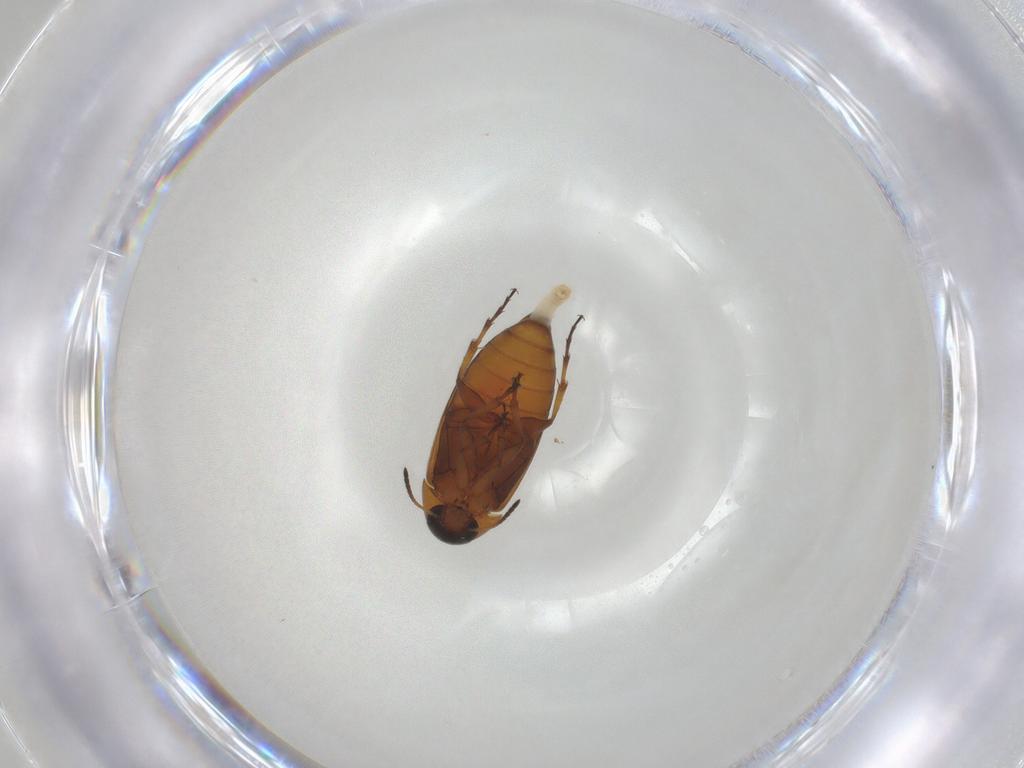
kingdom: Animalia
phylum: Arthropoda
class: Insecta
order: Coleoptera
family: Scraptiidae
